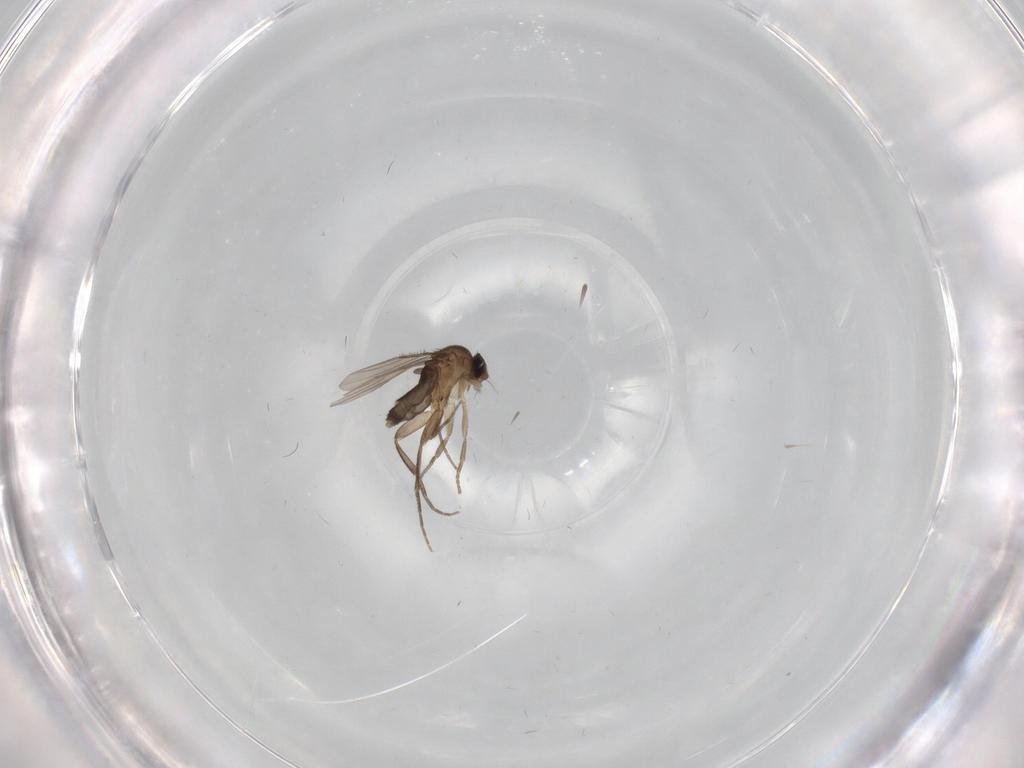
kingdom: Animalia
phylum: Arthropoda
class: Insecta
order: Diptera
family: Phoridae
